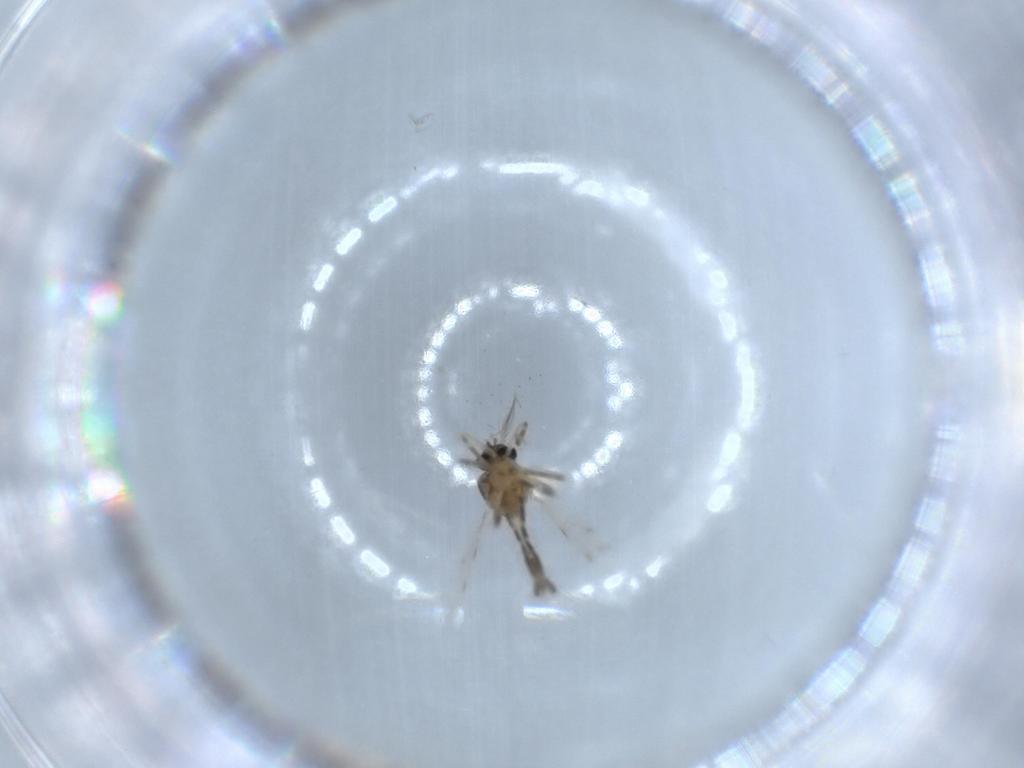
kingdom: Animalia
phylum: Arthropoda
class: Insecta
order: Diptera
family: Ceratopogonidae
